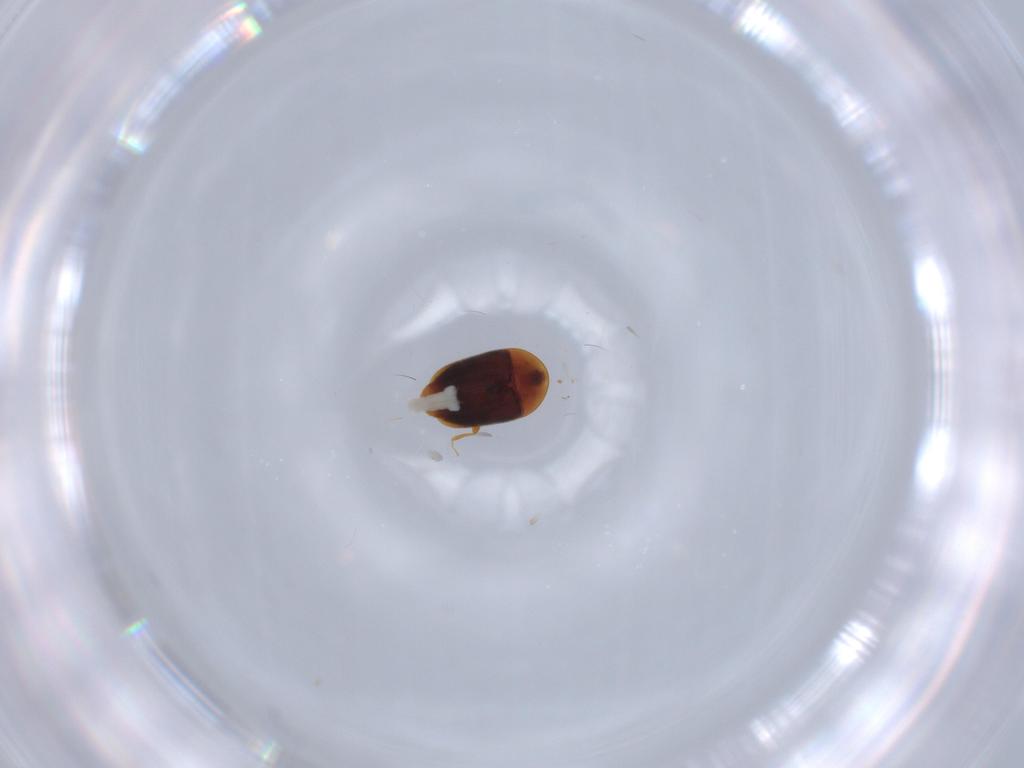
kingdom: Animalia
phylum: Arthropoda
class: Insecta
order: Coleoptera
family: Corylophidae
